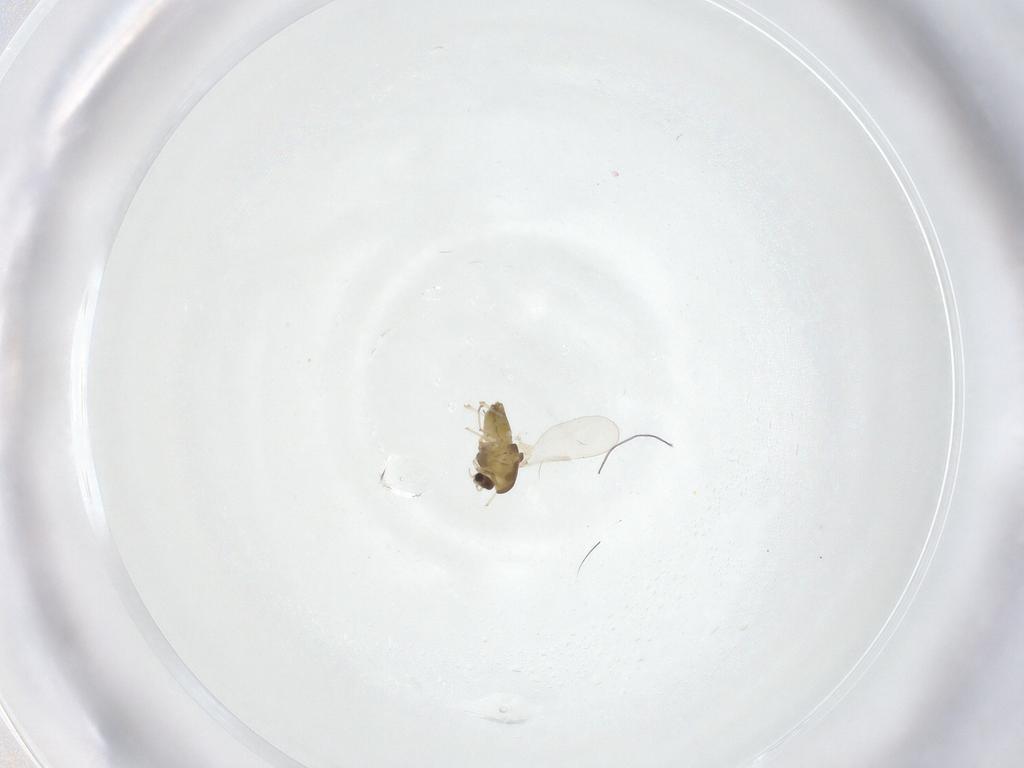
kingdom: Animalia
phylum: Arthropoda
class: Insecta
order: Diptera
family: Chironomidae
